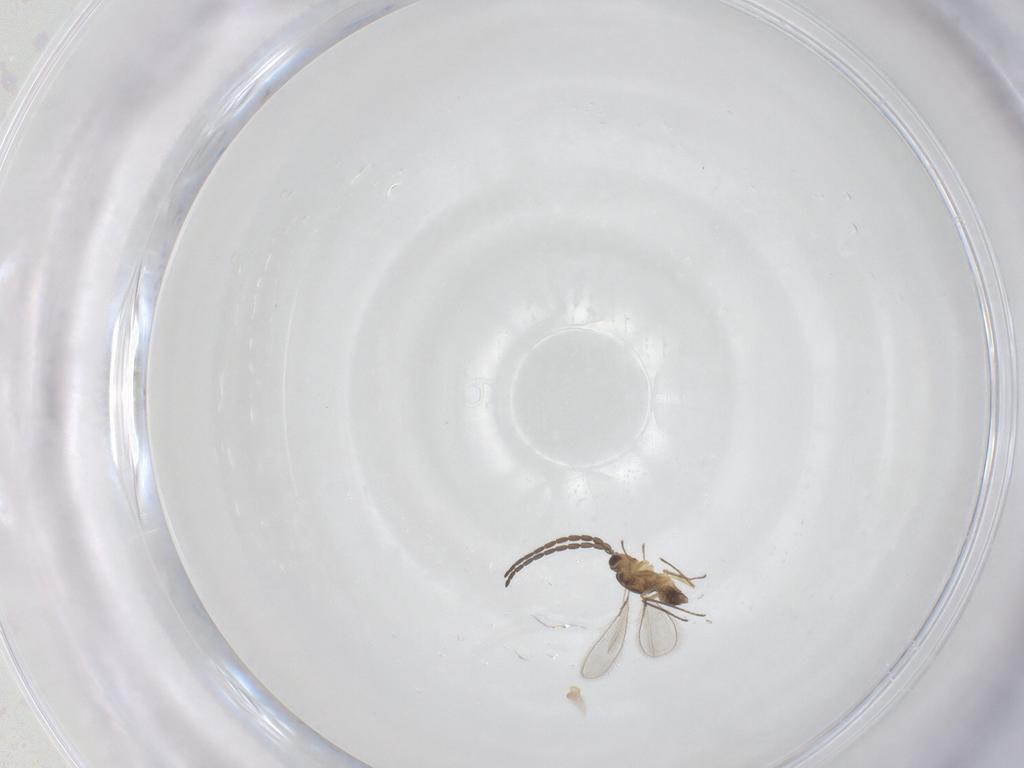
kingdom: Animalia
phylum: Arthropoda
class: Insecta
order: Hymenoptera
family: Mymaridae
